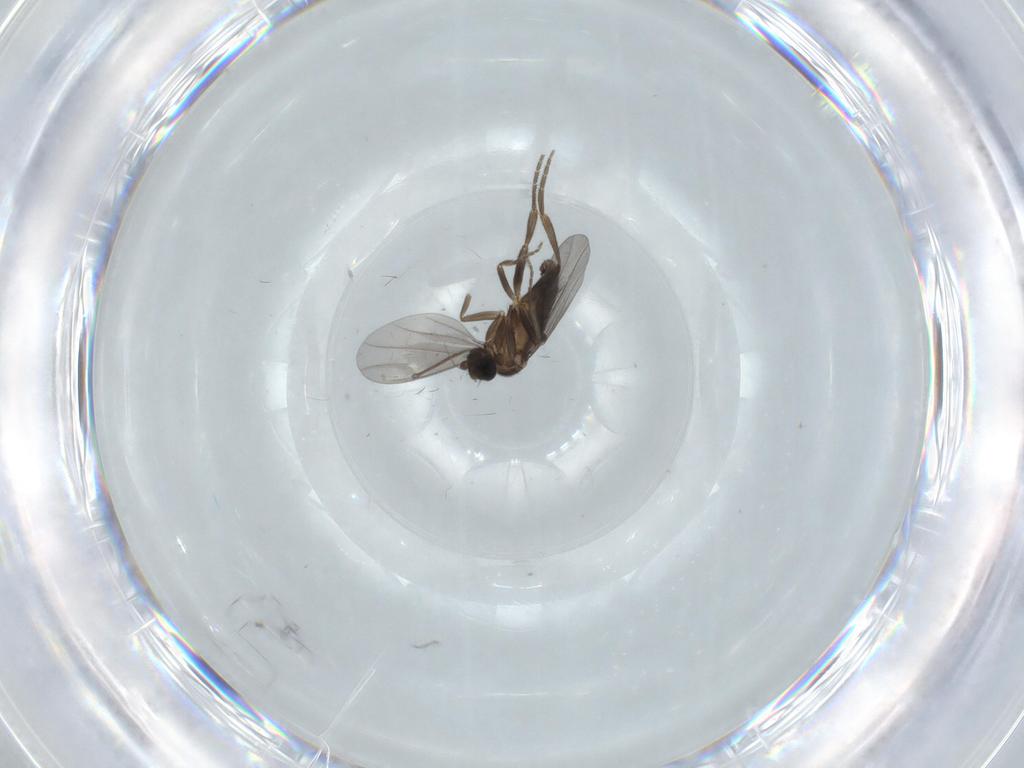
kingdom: Animalia
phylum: Arthropoda
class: Insecta
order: Diptera
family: Phoridae
